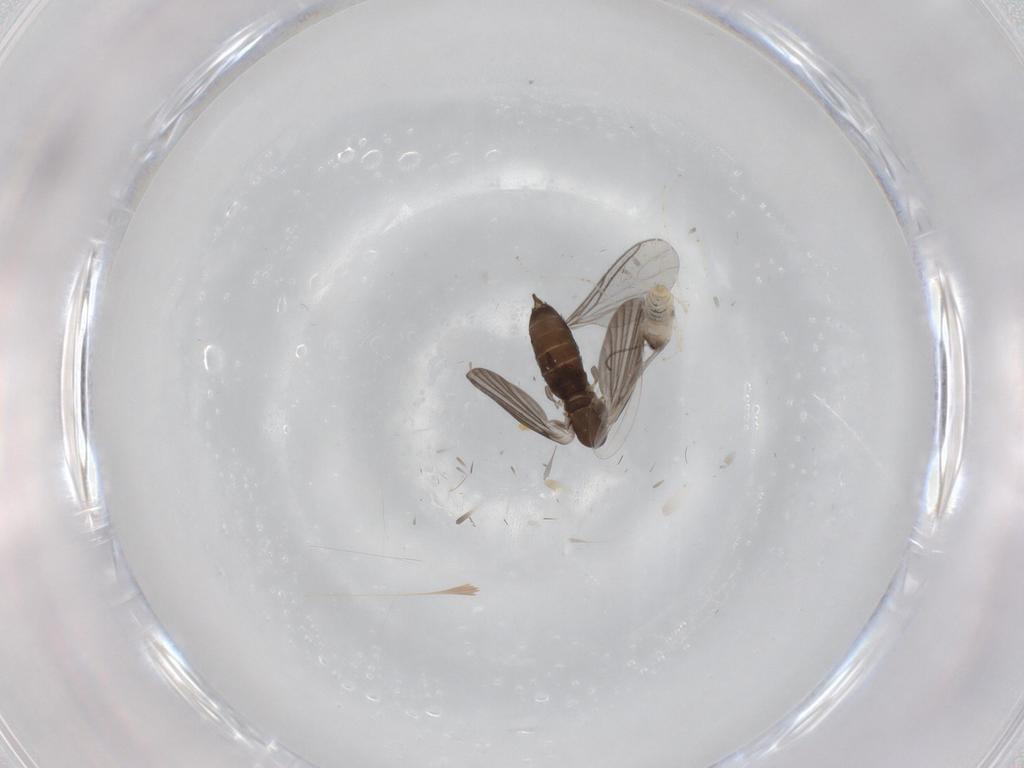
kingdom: Animalia
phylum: Arthropoda
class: Insecta
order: Diptera
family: Cecidomyiidae
